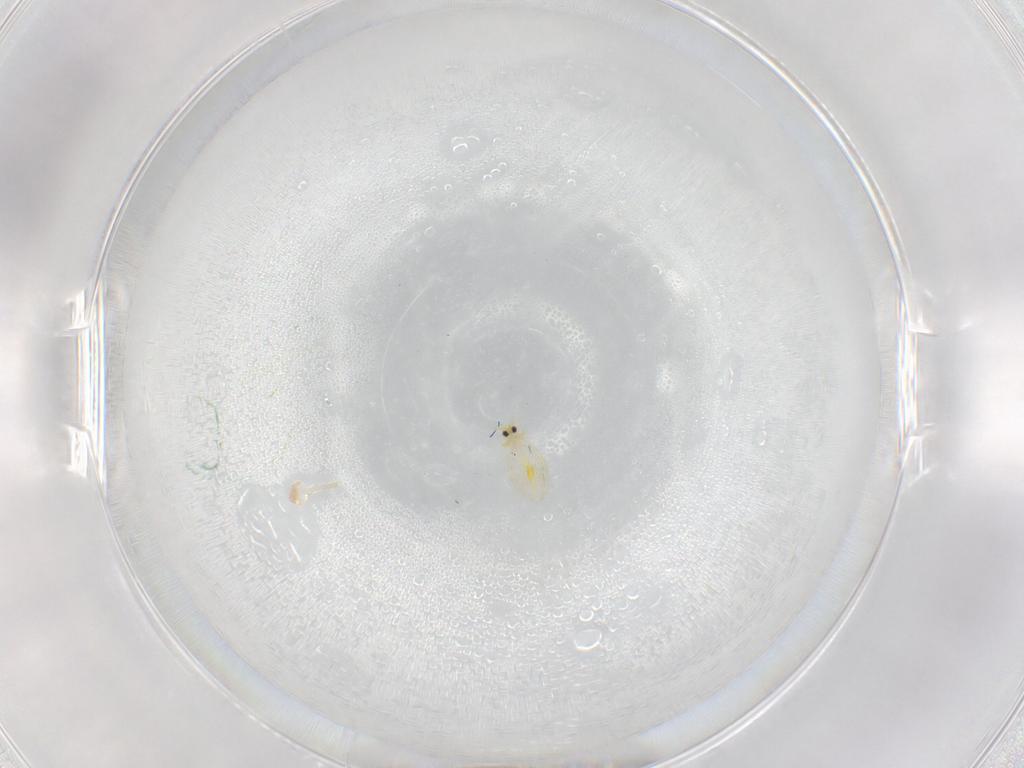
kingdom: Animalia
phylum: Arthropoda
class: Insecta
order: Hemiptera
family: Aleyrodidae
